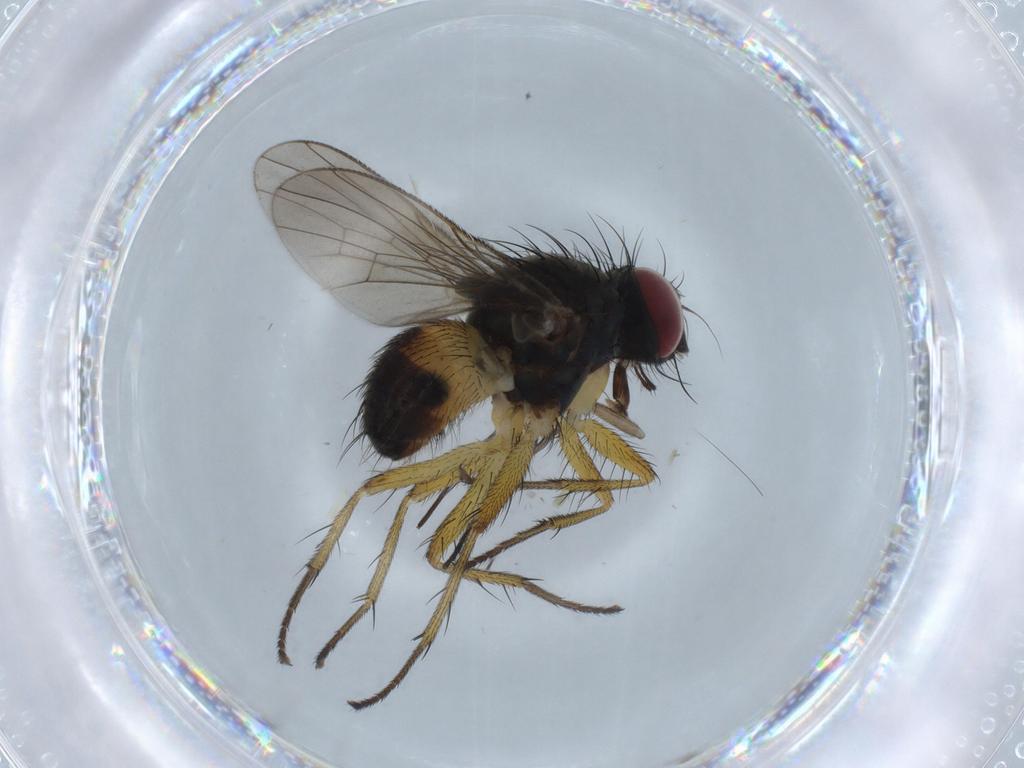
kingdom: Animalia
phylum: Arthropoda
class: Insecta
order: Diptera
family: Muscidae
